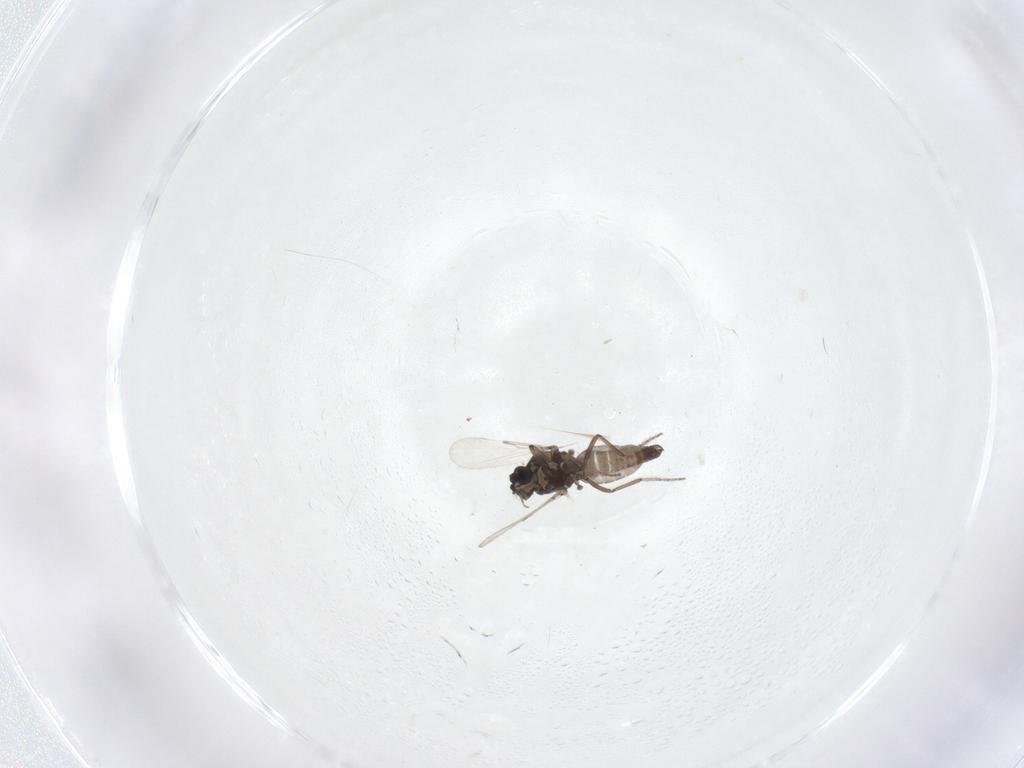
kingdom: Animalia
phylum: Arthropoda
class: Insecta
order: Diptera
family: Ceratopogonidae
